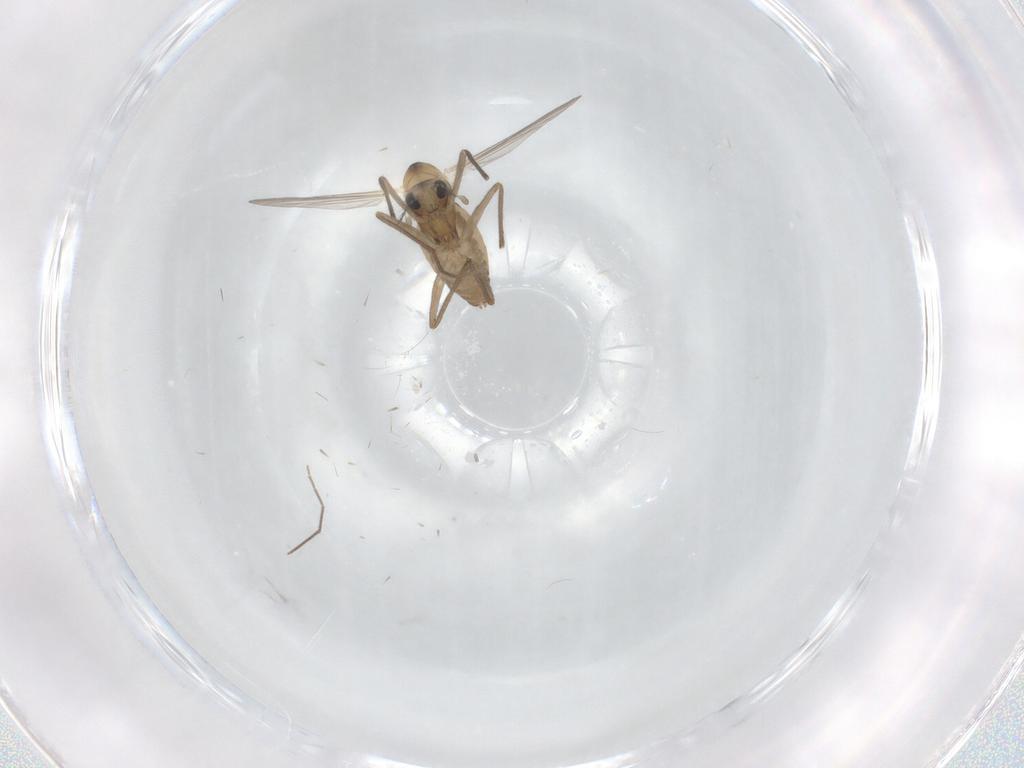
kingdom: Animalia
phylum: Arthropoda
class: Insecta
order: Diptera
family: Chironomidae
